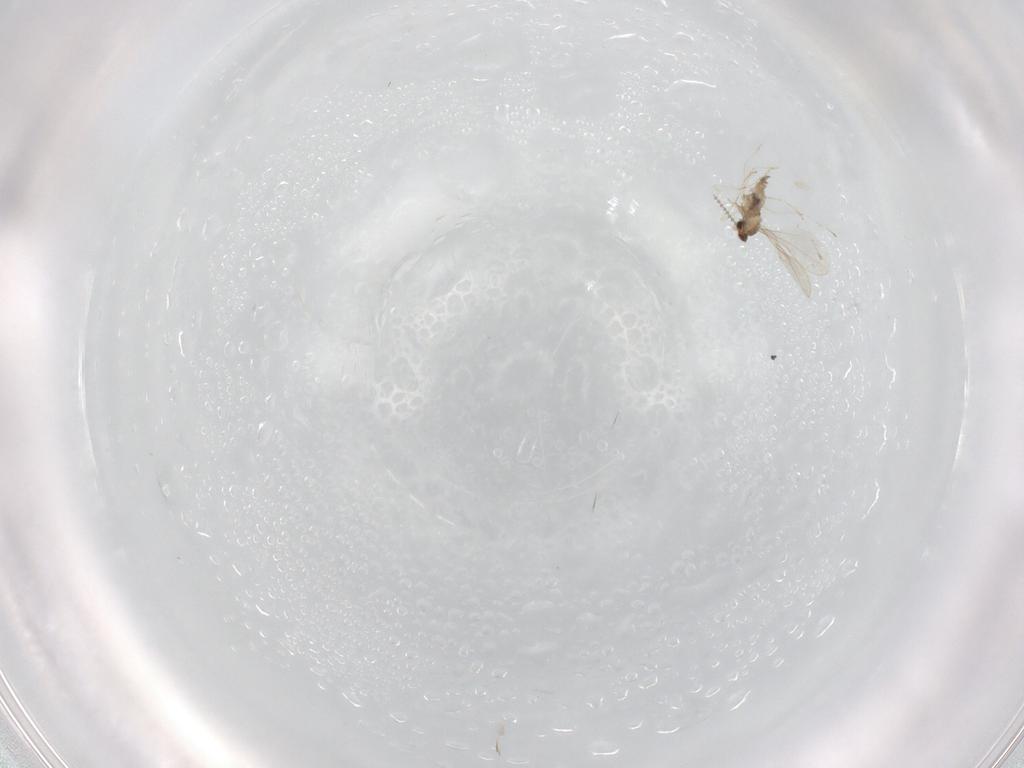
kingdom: Animalia
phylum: Arthropoda
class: Insecta
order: Diptera
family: Cecidomyiidae
